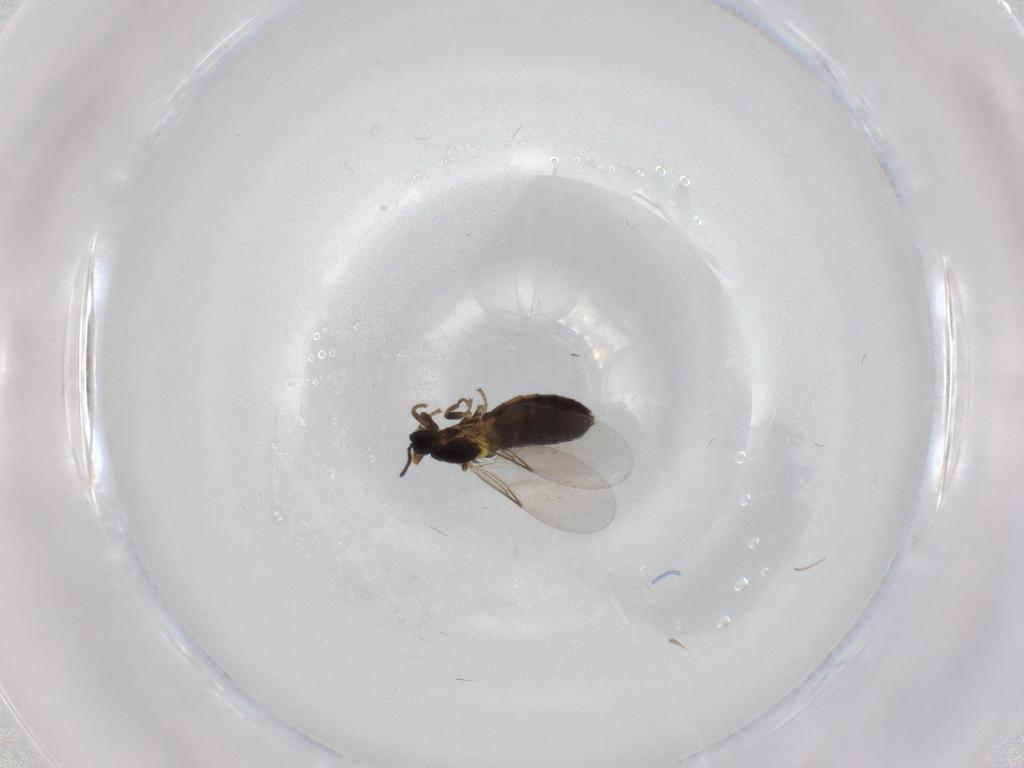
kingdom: Animalia
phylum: Arthropoda
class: Insecta
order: Diptera
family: Scatopsidae
